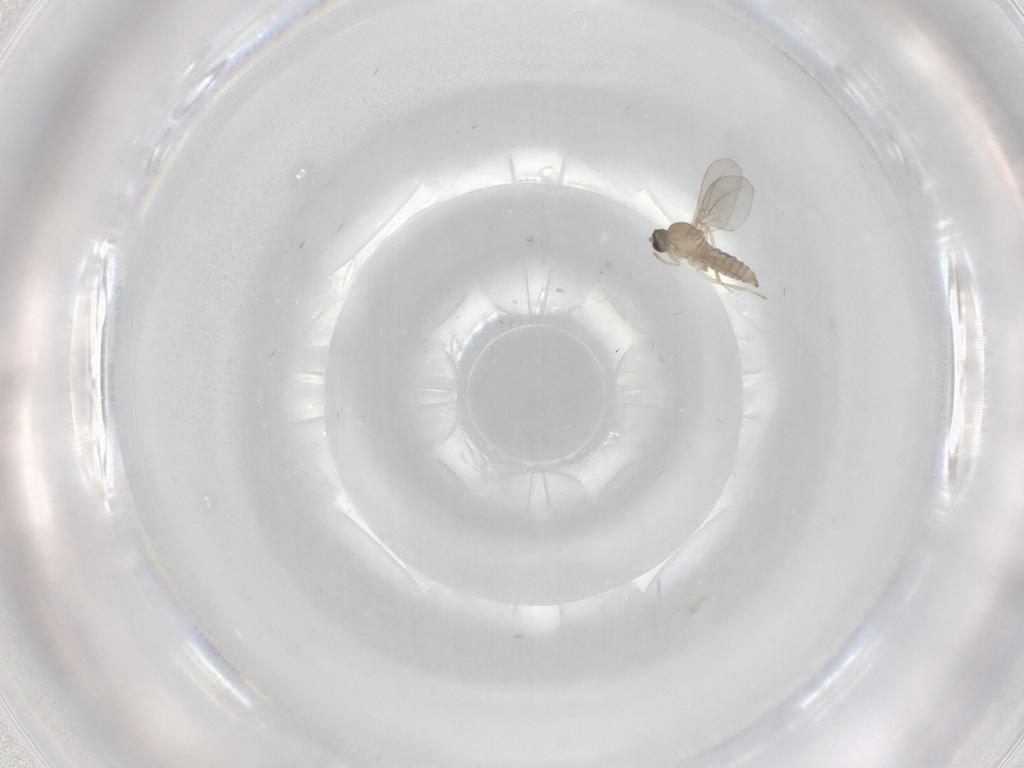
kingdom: Animalia
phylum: Arthropoda
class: Insecta
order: Diptera
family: Cecidomyiidae
